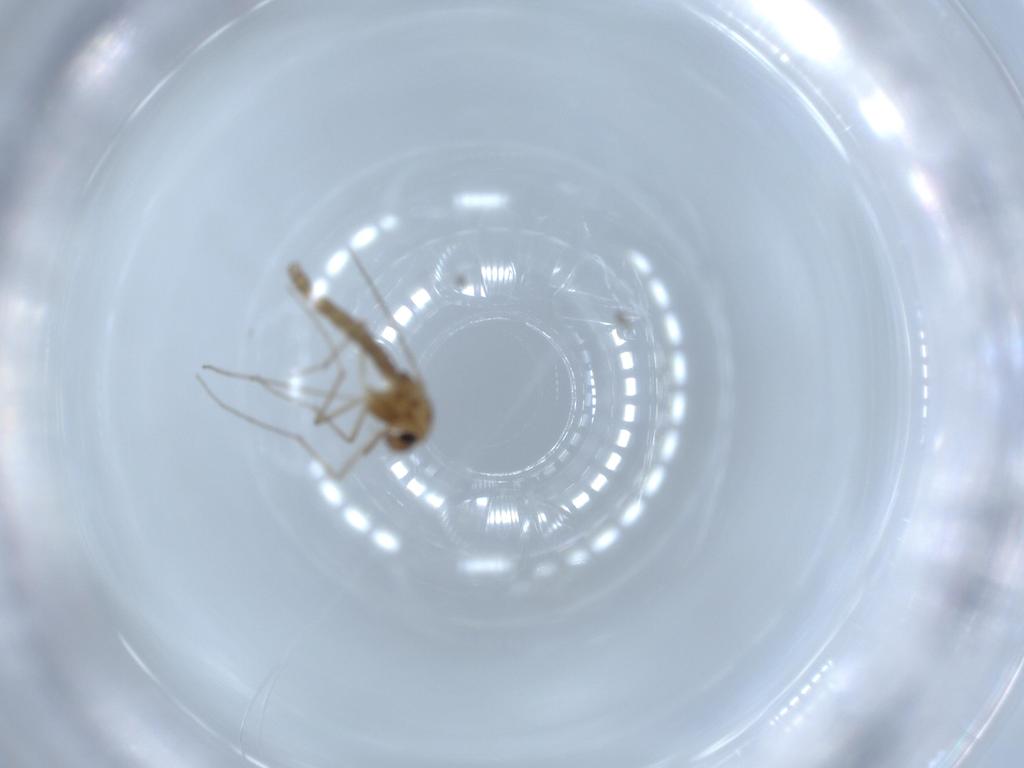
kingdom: Animalia
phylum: Arthropoda
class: Insecta
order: Diptera
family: Chironomidae
